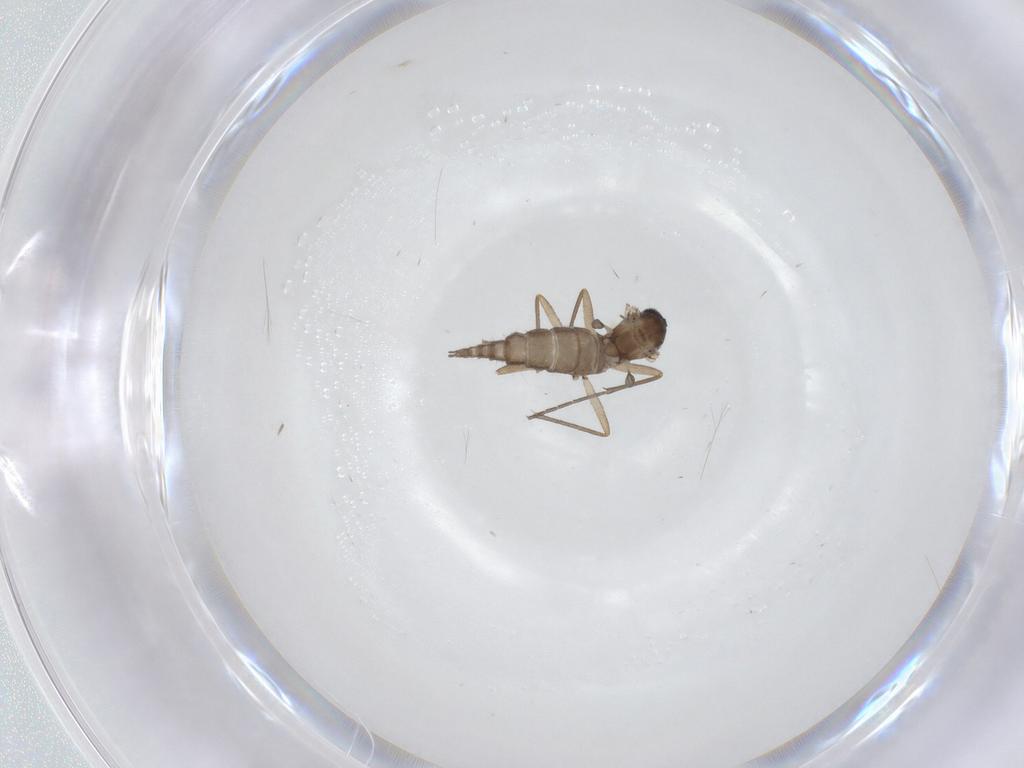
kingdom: Animalia
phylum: Arthropoda
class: Insecta
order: Diptera
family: Sciaridae
